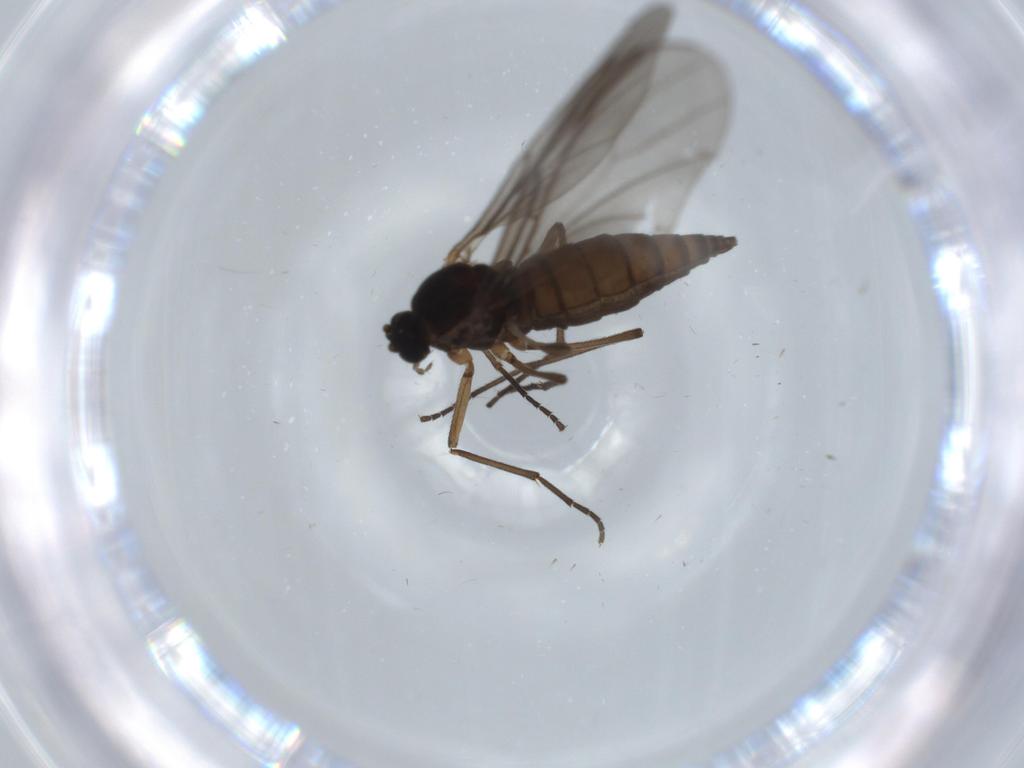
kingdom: Animalia
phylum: Arthropoda
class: Insecta
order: Diptera
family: Sciaridae
